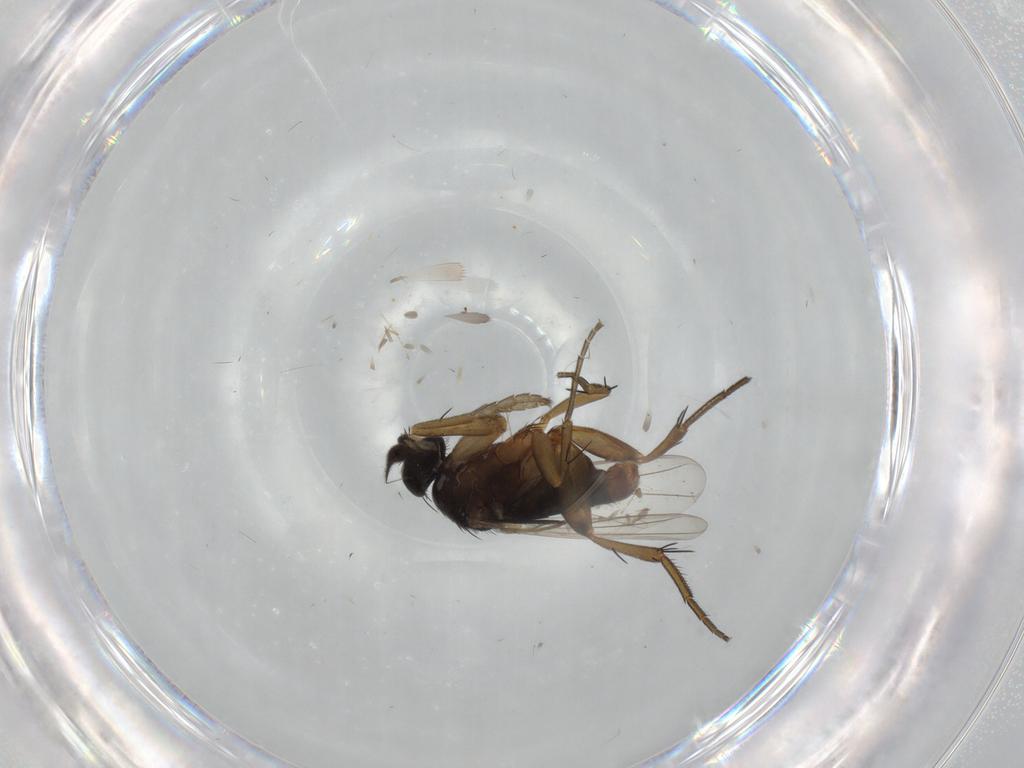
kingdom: Animalia
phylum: Arthropoda
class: Insecta
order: Diptera
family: Phoridae
